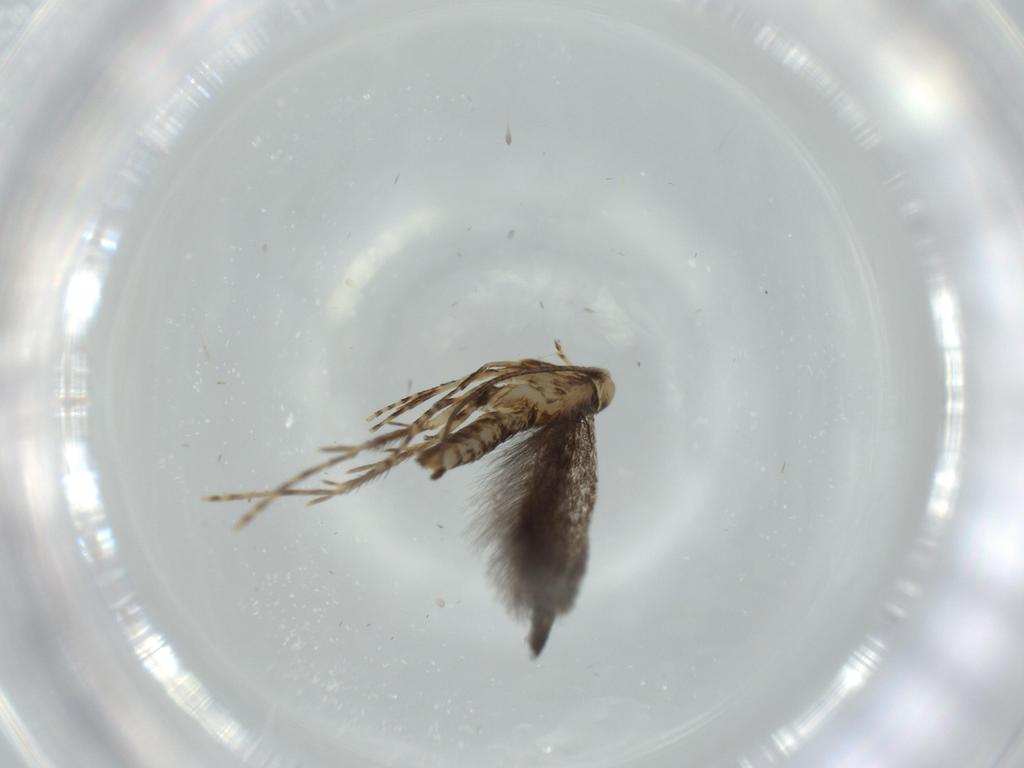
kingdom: Animalia
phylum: Arthropoda
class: Insecta
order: Lepidoptera
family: Gracillariidae
